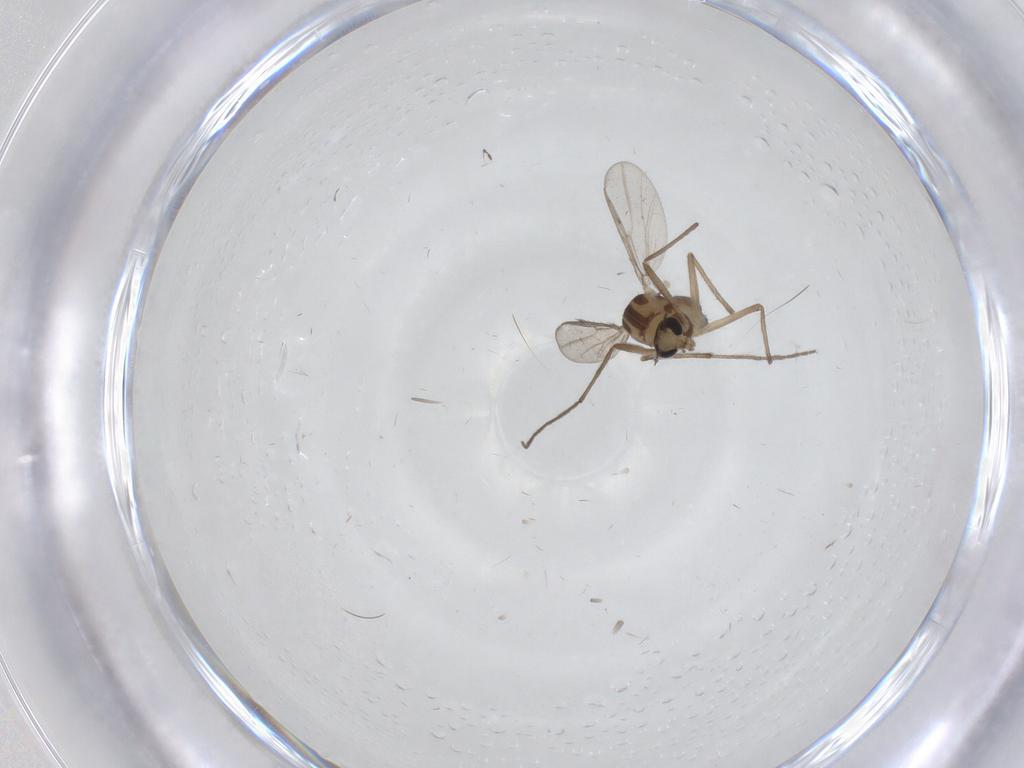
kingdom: Animalia
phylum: Arthropoda
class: Insecta
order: Diptera
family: Chironomidae
